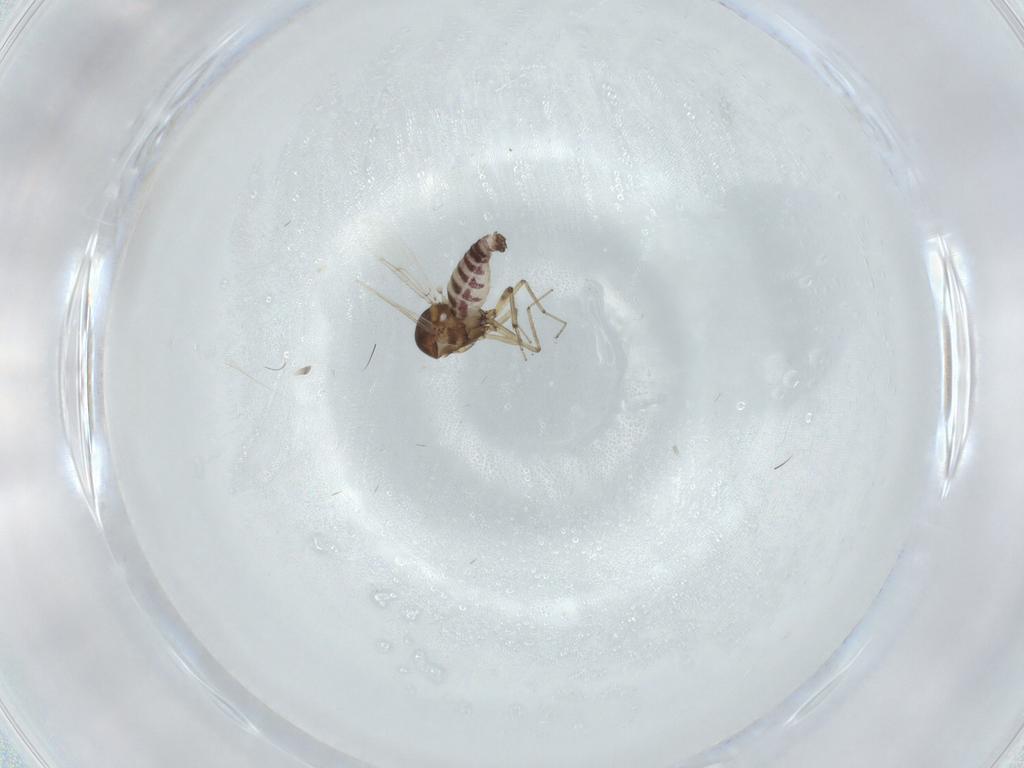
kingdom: Animalia
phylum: Arthropoda
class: Insecta
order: Diptera
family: Ceratopogonidae
